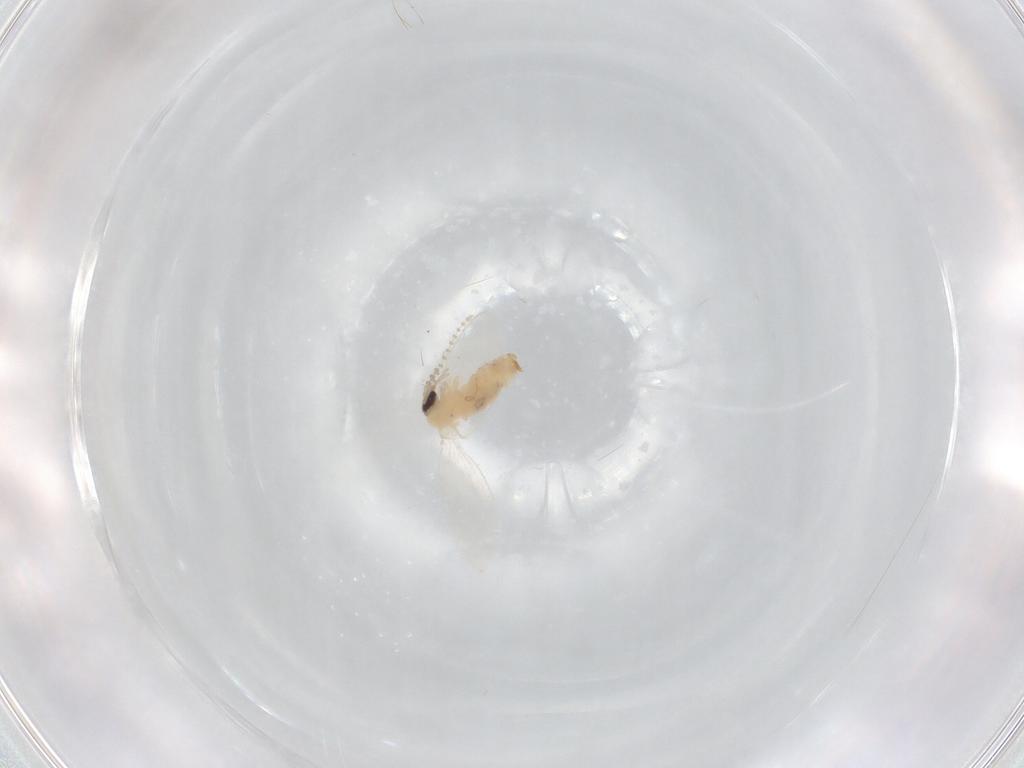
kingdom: Animalia
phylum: Arthropoda
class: Insecta
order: Diptera
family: Psychodidae
